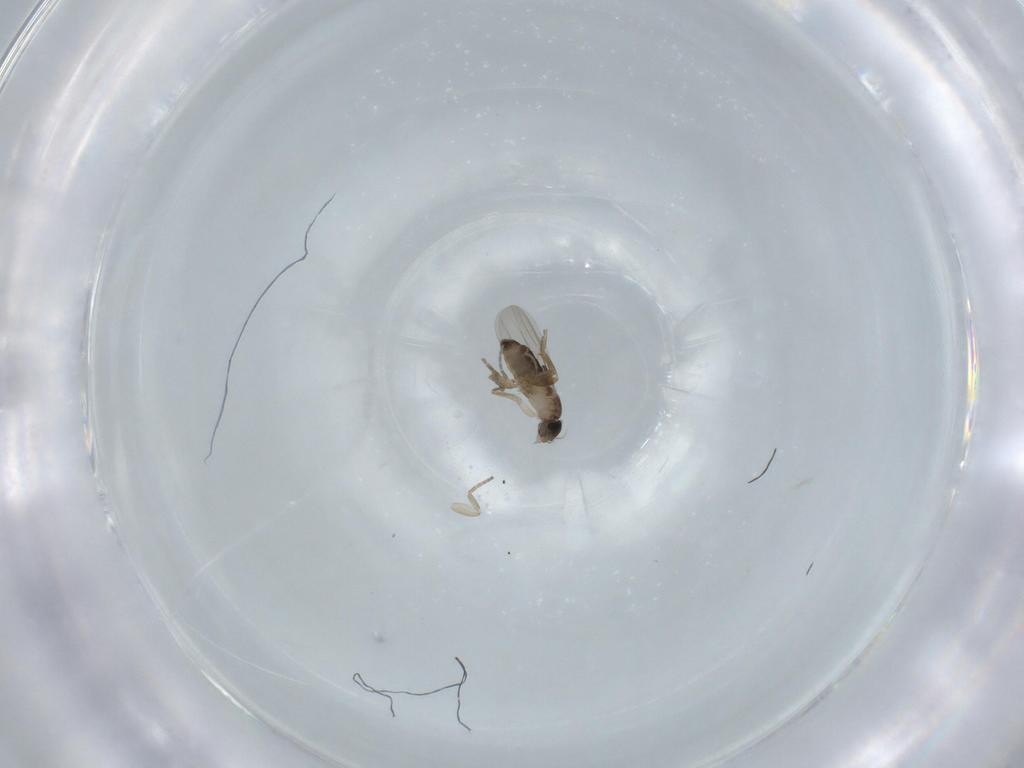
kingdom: Animalia
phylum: Arthropoda
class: Insecta
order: Diptera
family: Phoridae
